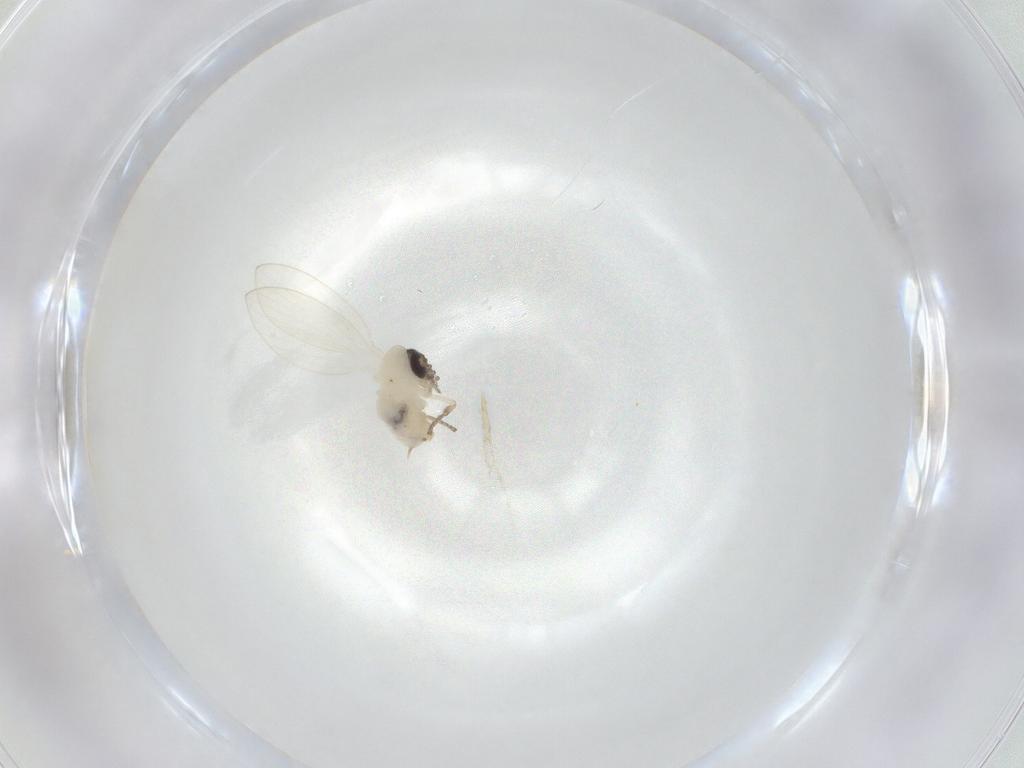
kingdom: Animalia
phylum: Arthropoda
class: Insecta
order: Diptera
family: Psychodidae
